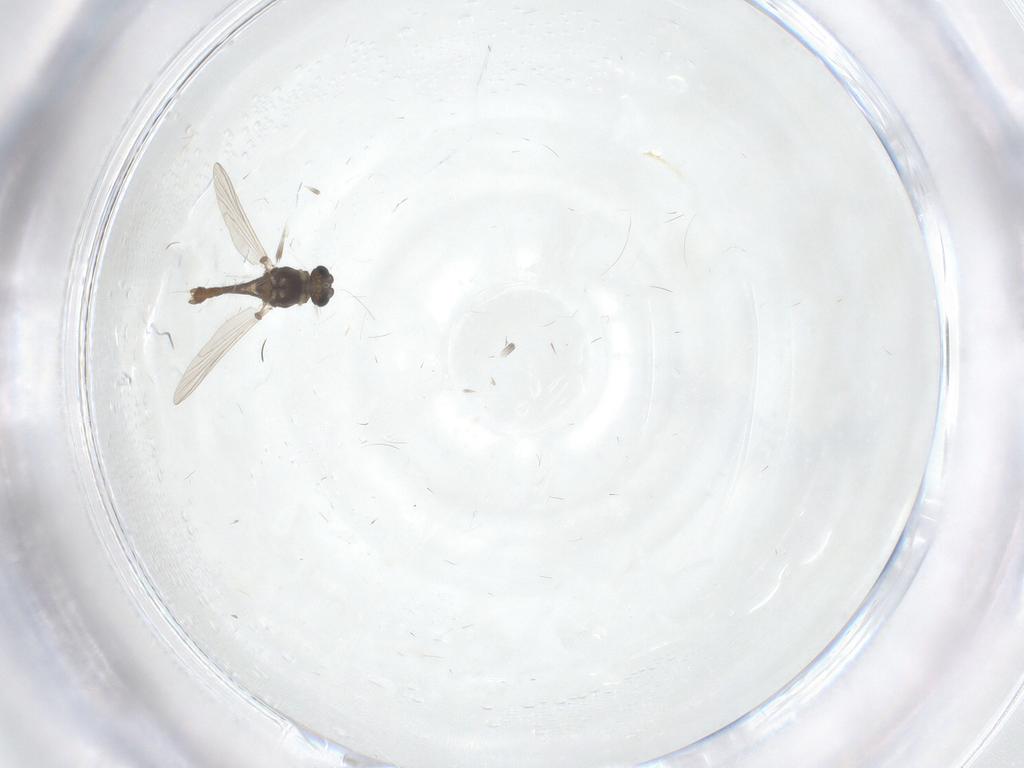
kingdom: Animalia
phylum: Arthropoda
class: Insecta
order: Diptera
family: Chironomidae
